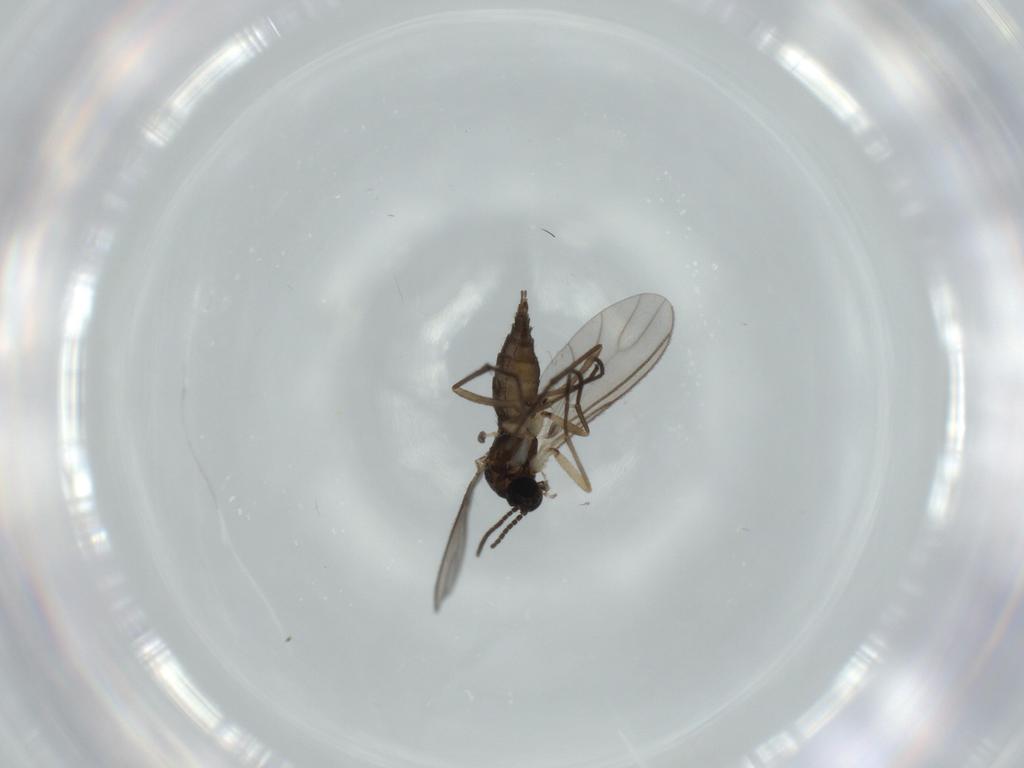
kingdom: Animalia
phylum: Arthropoda
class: Insecta
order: Diptera
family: Sciaridae
